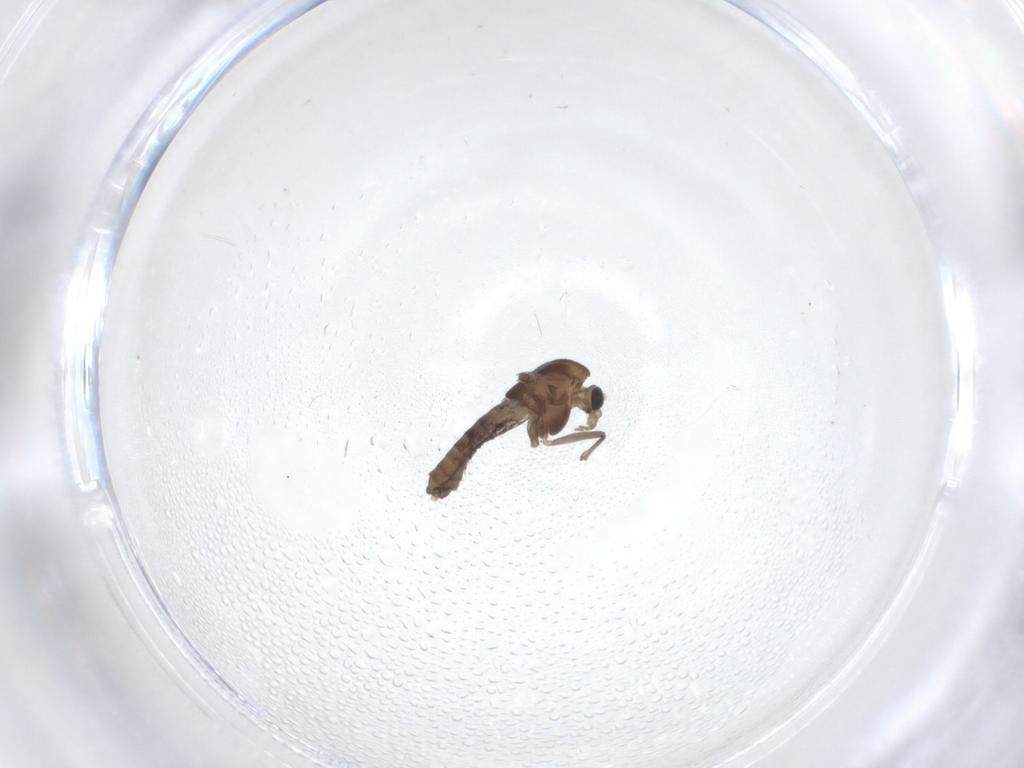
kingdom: Animalia
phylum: Arthropoda
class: Insecta
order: Diptera
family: Chironomidae
